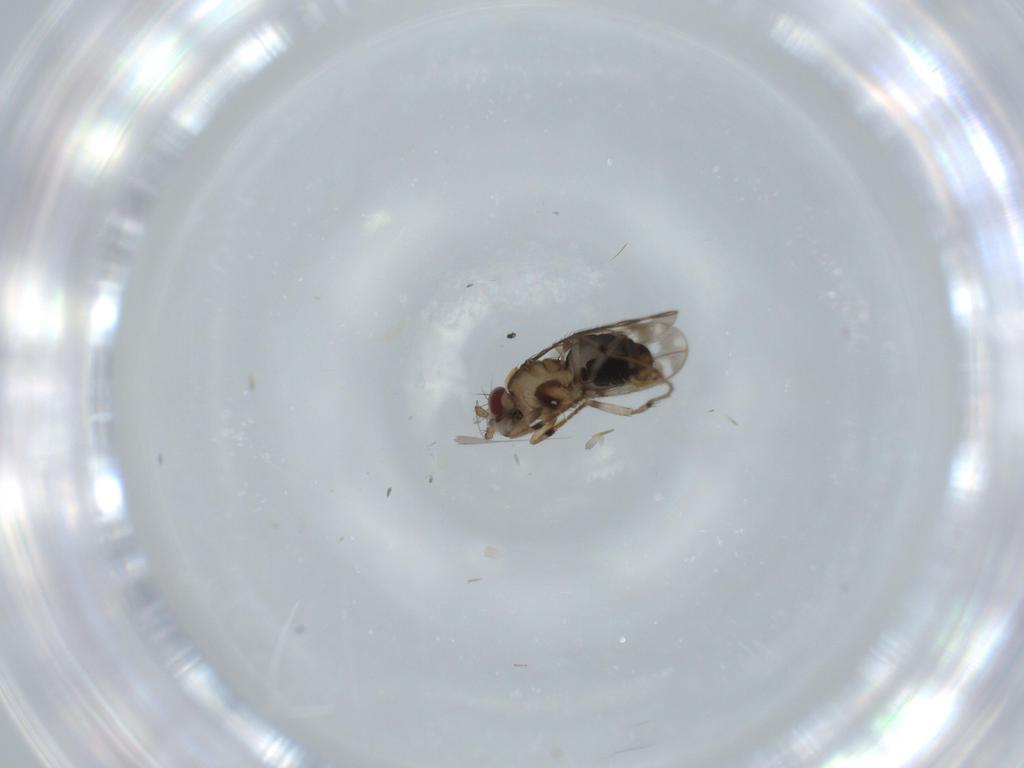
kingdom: Animalia
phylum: Arthropoda
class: Insecta
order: Diptera
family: Sphaeroceridae
